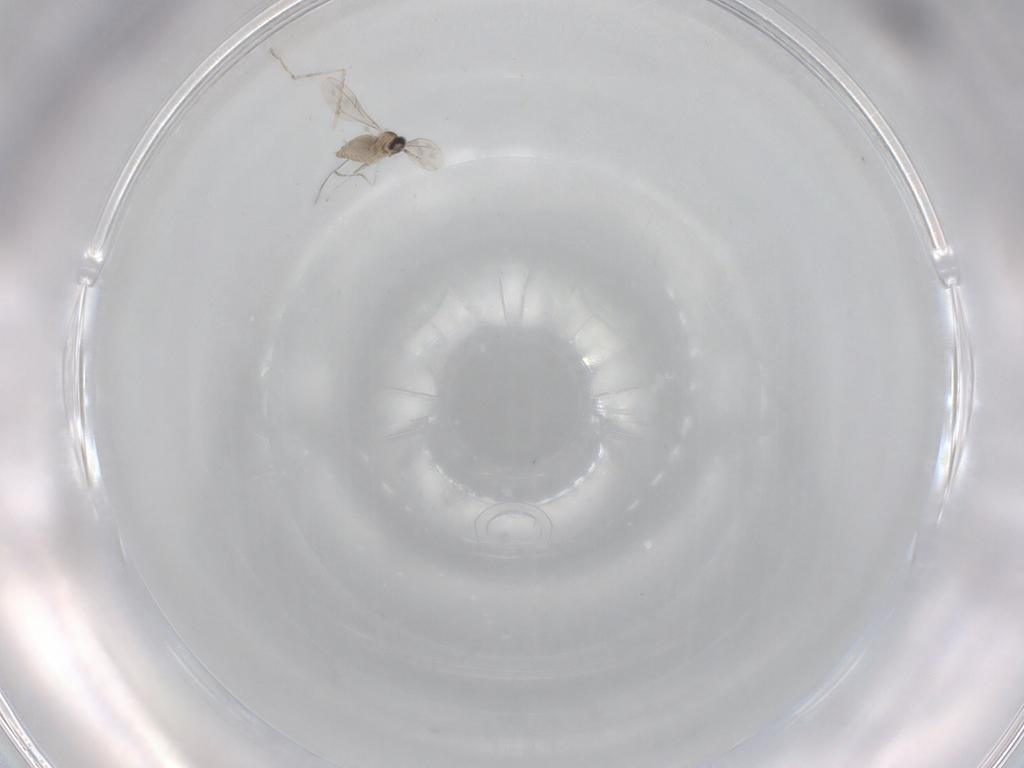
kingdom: Animalia
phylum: Arthropoda
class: Insecta
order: Diptera
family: Cecidomyiidae
